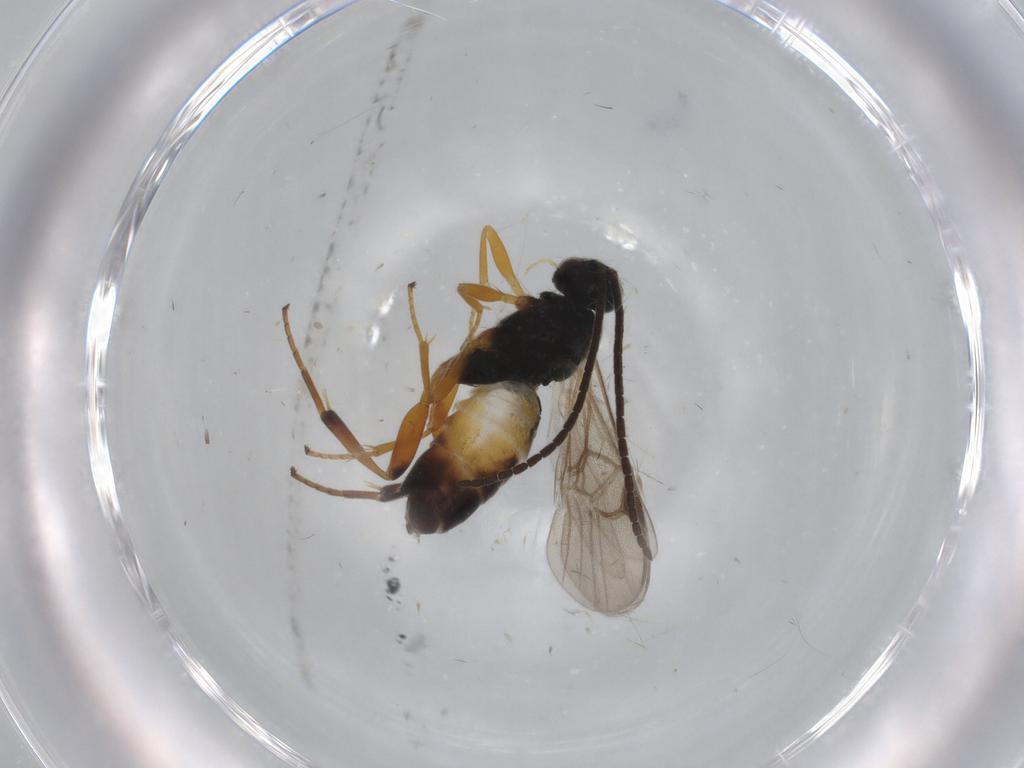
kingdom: Animalia
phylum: Arthropoda
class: Insecta
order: Hymenoptera
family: Braconidae
